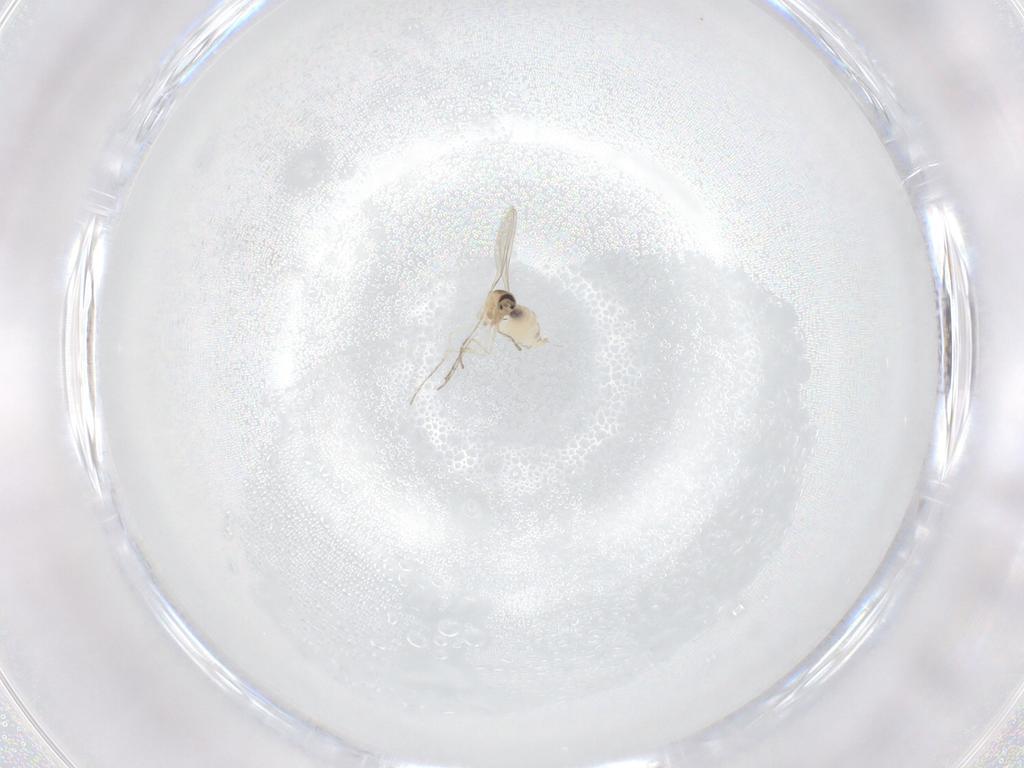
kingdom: Animalia
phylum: Arthropoda
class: Insecta
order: Diptera
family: Cecidomyiidae
